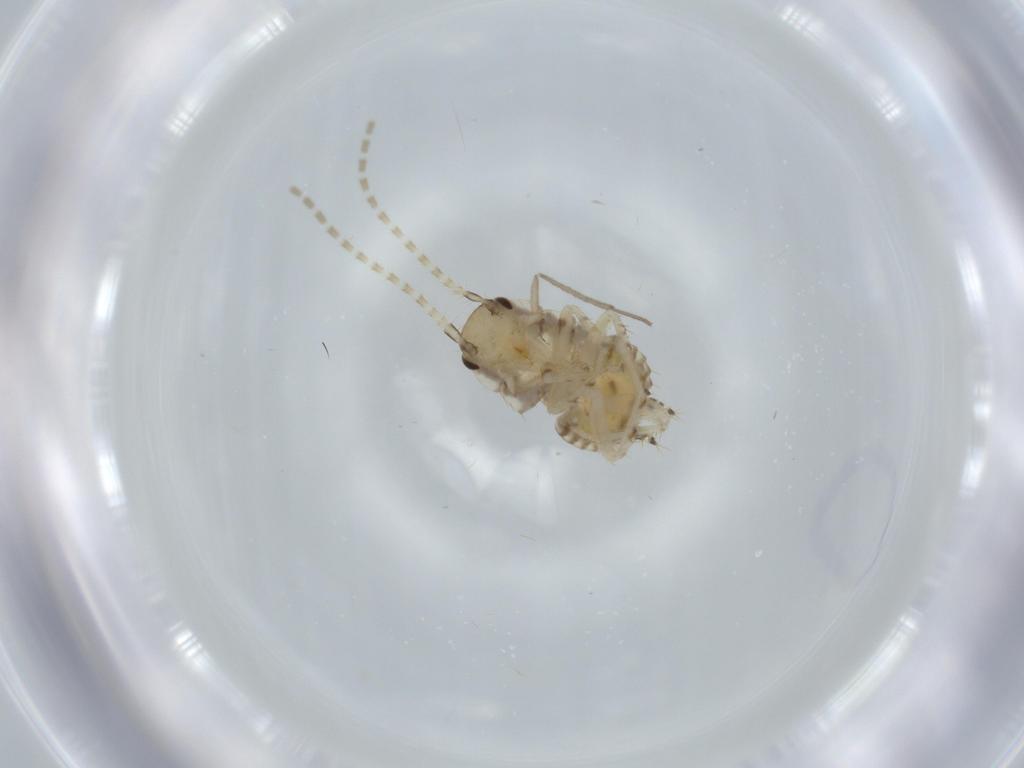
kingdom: Animalia
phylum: Arthropoda
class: Insecta
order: Blattodea
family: Ectobiidae
